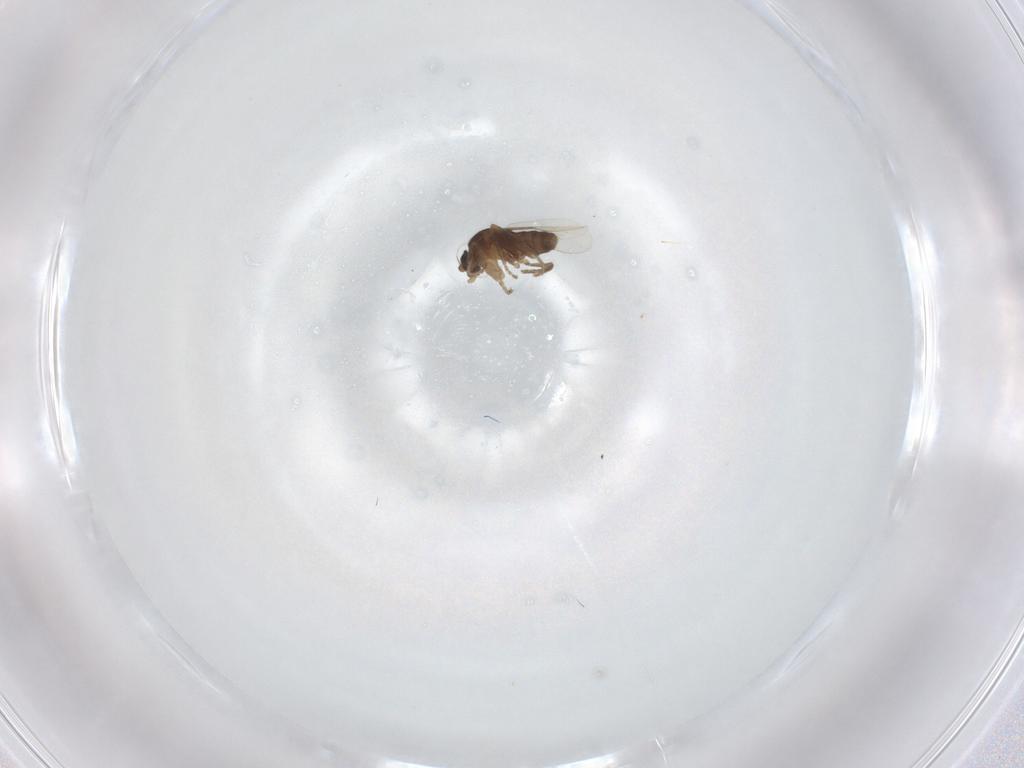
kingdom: Animalia
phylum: Arthropoda
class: Insecta
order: Diptera
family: Phoridae
